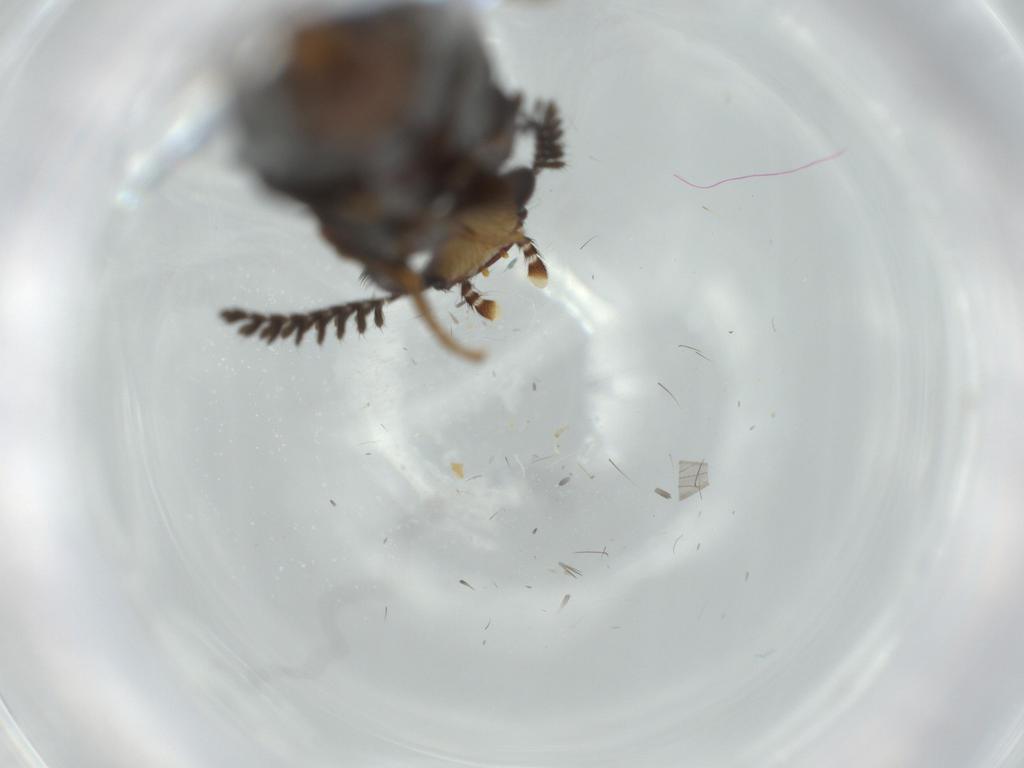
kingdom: Animalia
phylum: Arthropoda
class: Insecta
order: Coleoptera
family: Phengodidae
